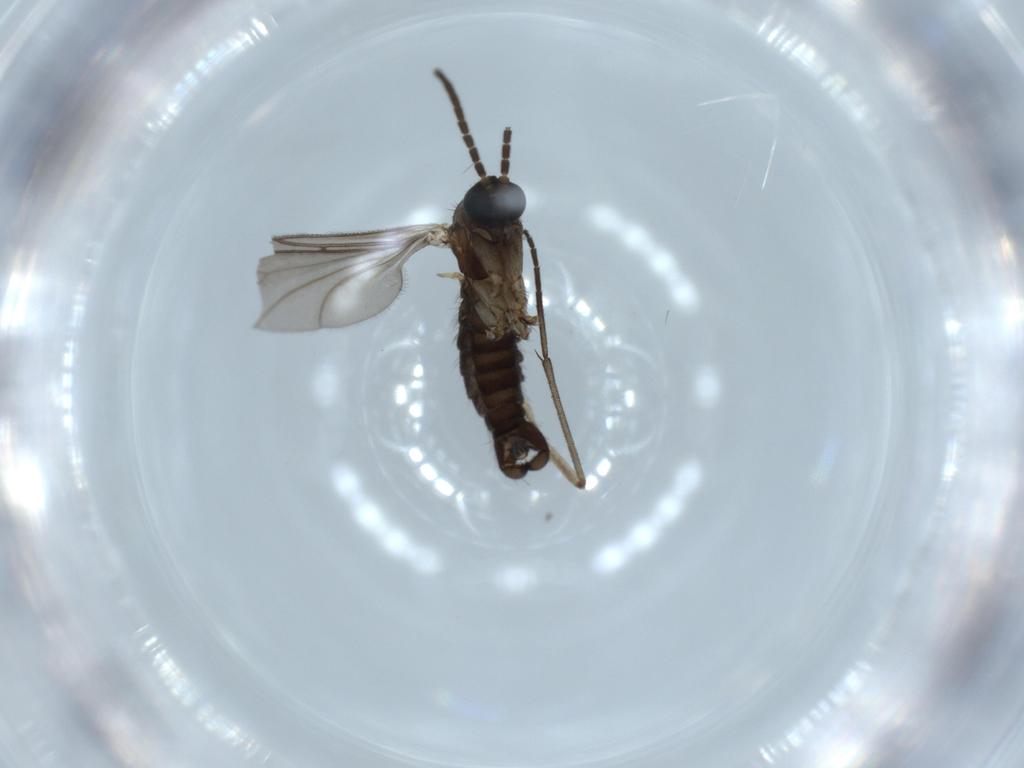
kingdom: Animalia
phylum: Arthropoda
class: Insecta
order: Diptera
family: Sciaridae
